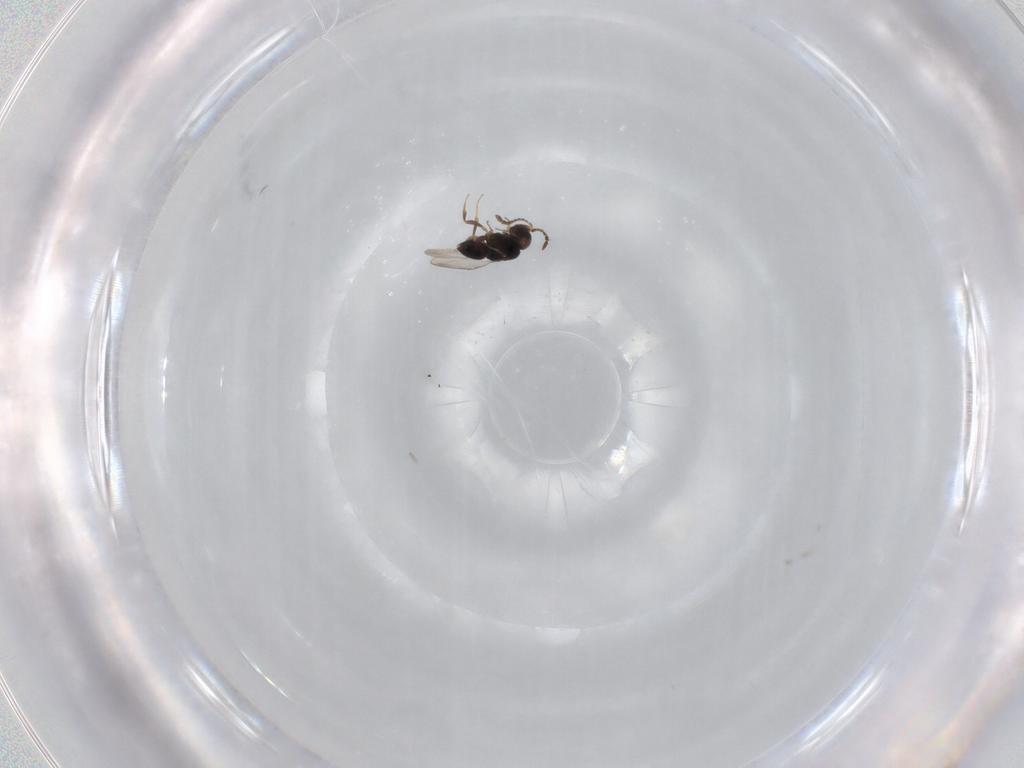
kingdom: Animalia
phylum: Arthropoda
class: Insecta
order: Hymenoptera
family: Ceraphronidae
